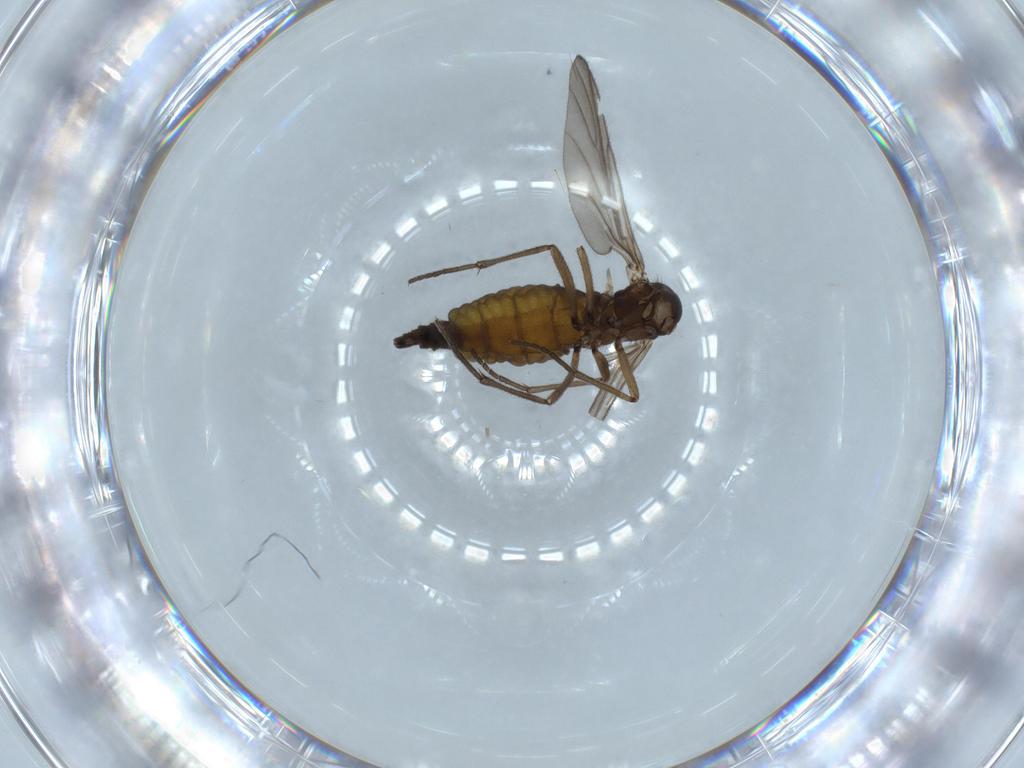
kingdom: Animalia
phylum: Arthropoda
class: Insecta
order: Diptera
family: Sciaridae
